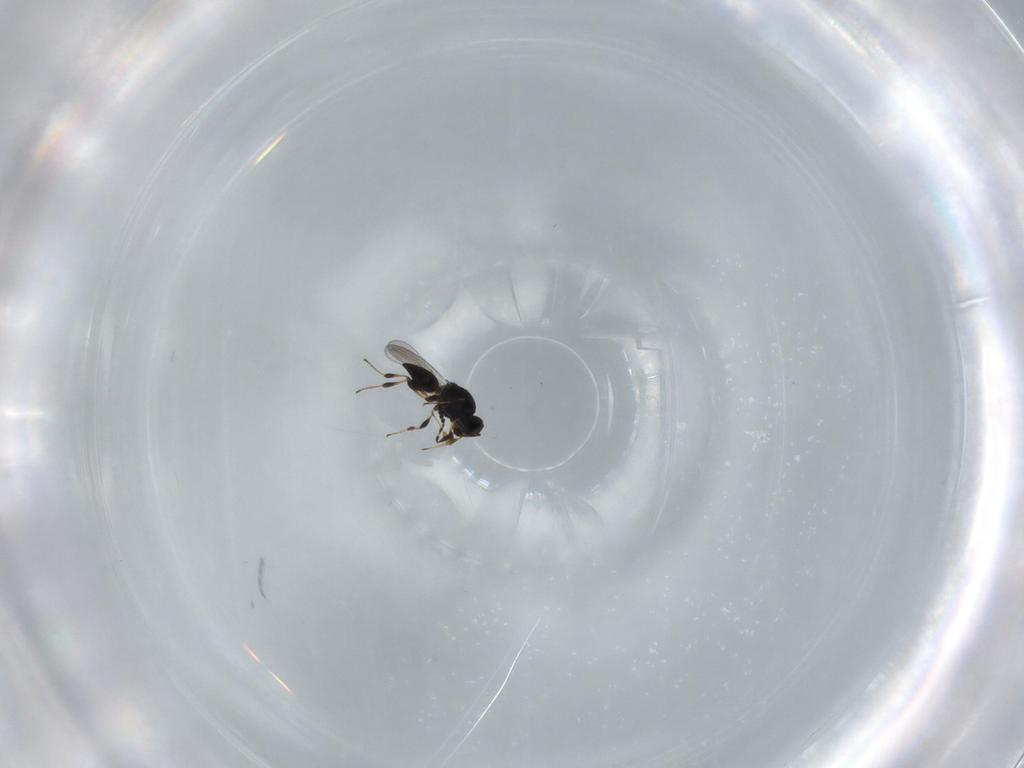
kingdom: Animalia
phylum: Arthropoda
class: Insecta
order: Hymenoptera
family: Platygastridae
